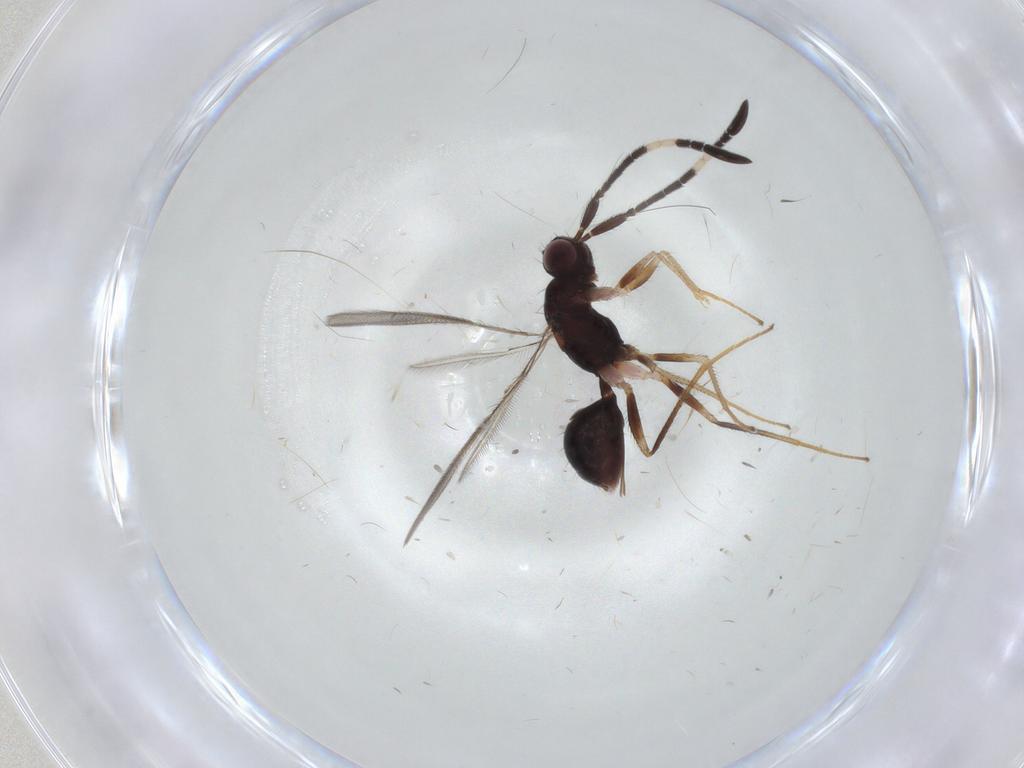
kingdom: Animalia
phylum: Arthropoda
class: Insecta
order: Hymenoptera
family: Mymaridae
